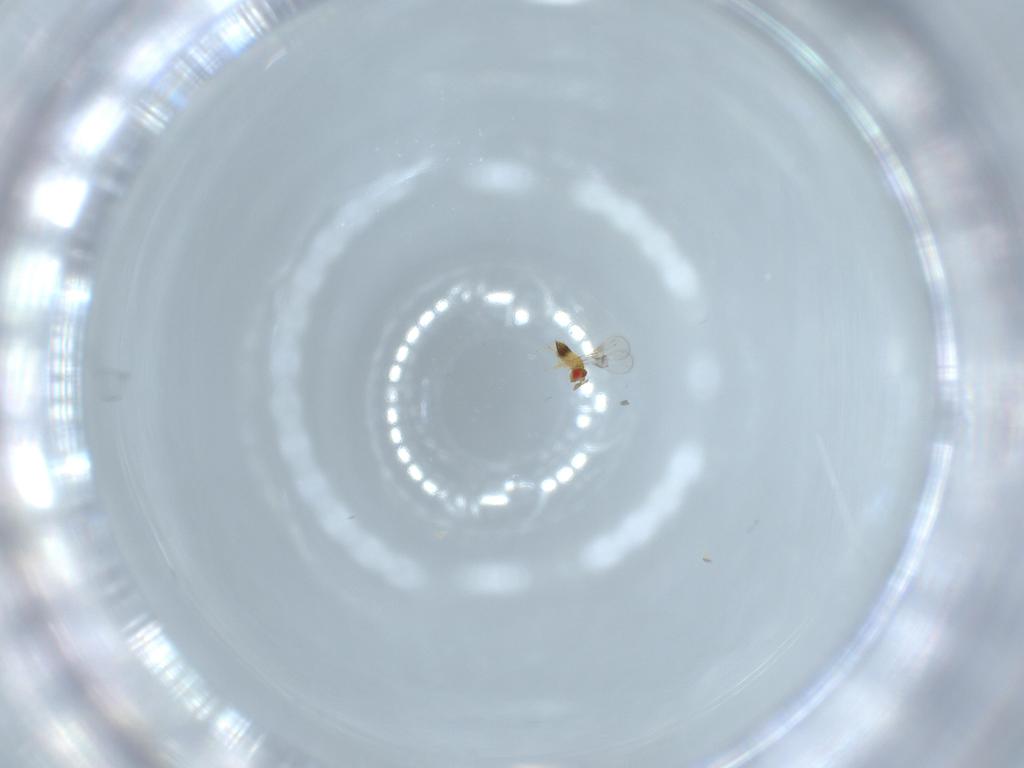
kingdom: Animalia
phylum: Arthropoda
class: Insecta
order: Hymenoptera
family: Trichogrammatidae
